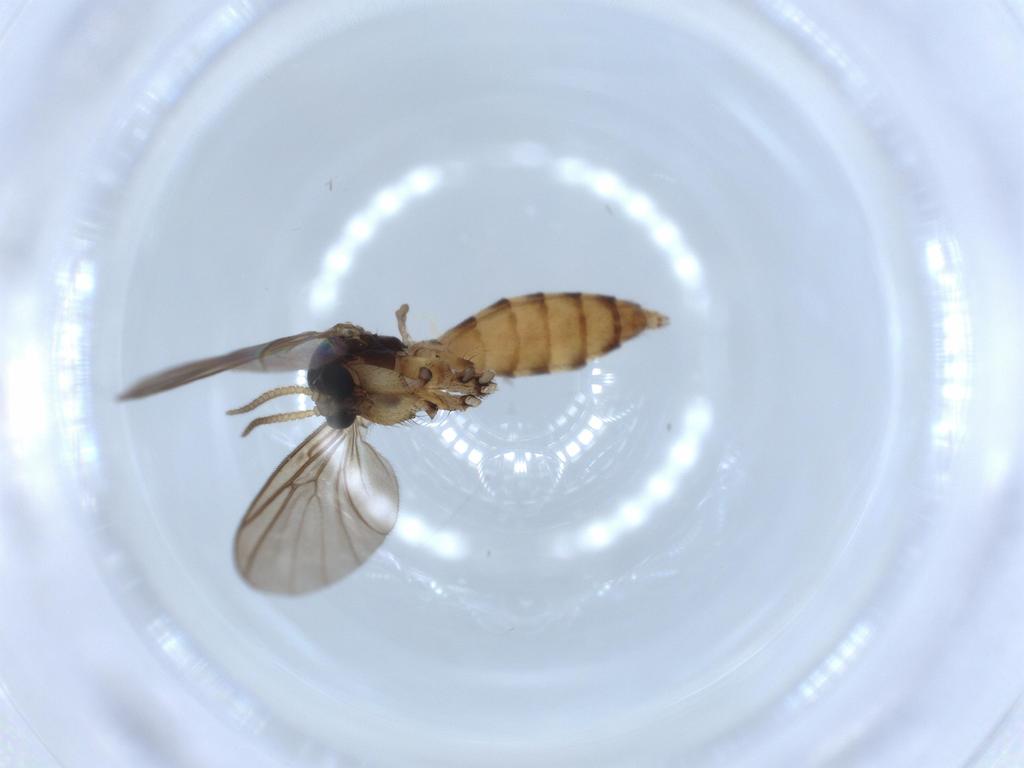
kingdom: Animalia
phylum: Arthropoda
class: Insecta
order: Diptera
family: Sciaridae
